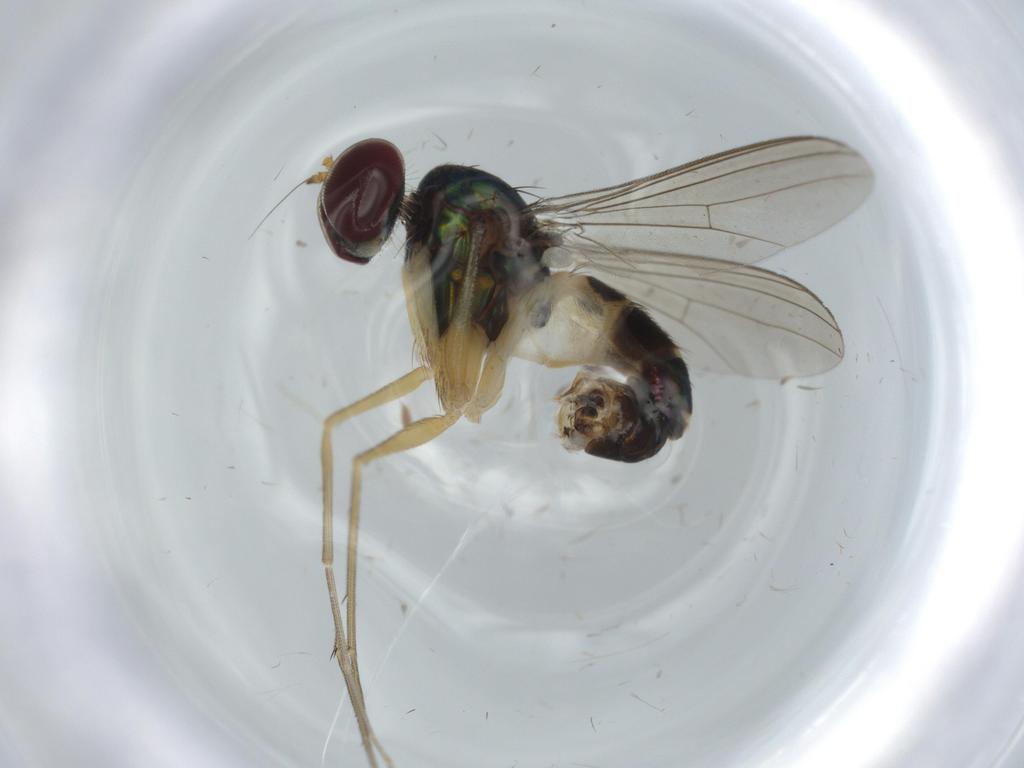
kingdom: Animalia
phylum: Arthropoda
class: Insecta
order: Diptera
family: Dolichopodidae
